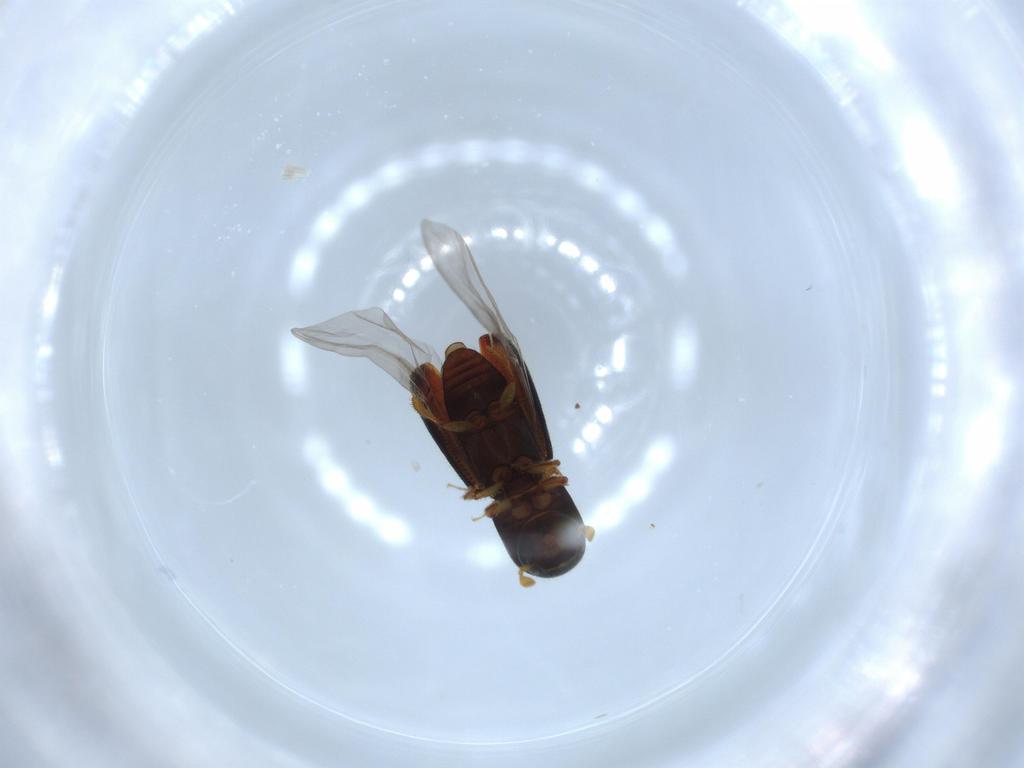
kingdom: Animalia
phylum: Arthropoda
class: Insecta
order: Coleoptera
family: Curculionidae
